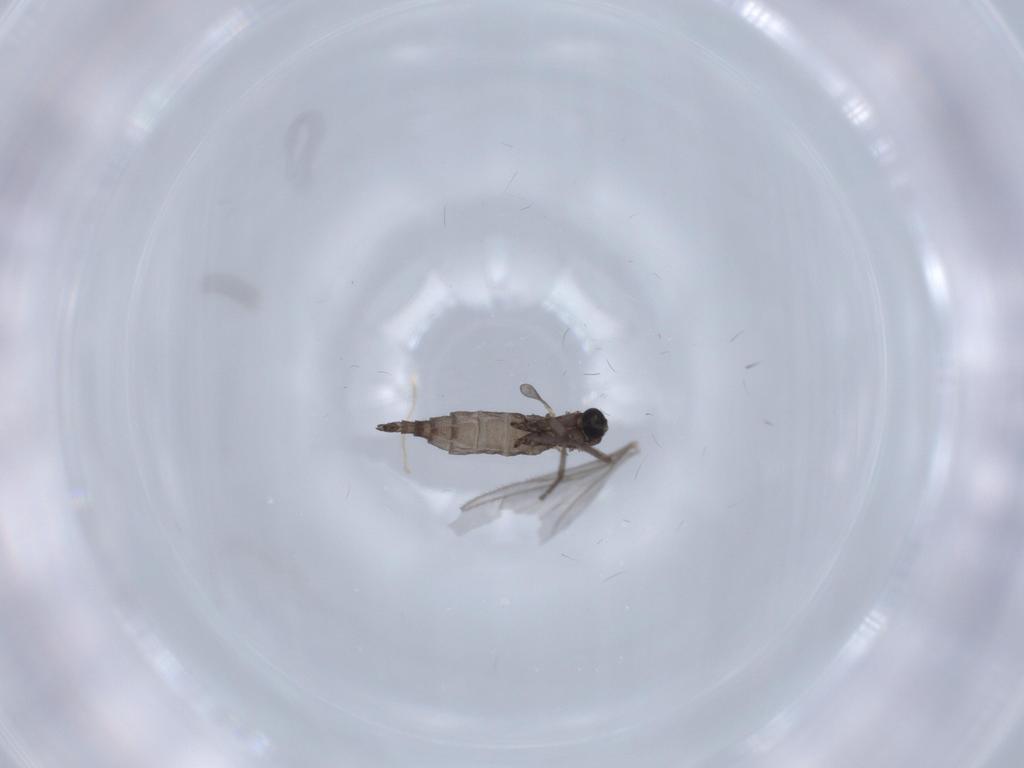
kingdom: Animalia
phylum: Arthropoda
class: Insecta
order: Diptera
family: Sciaridae
